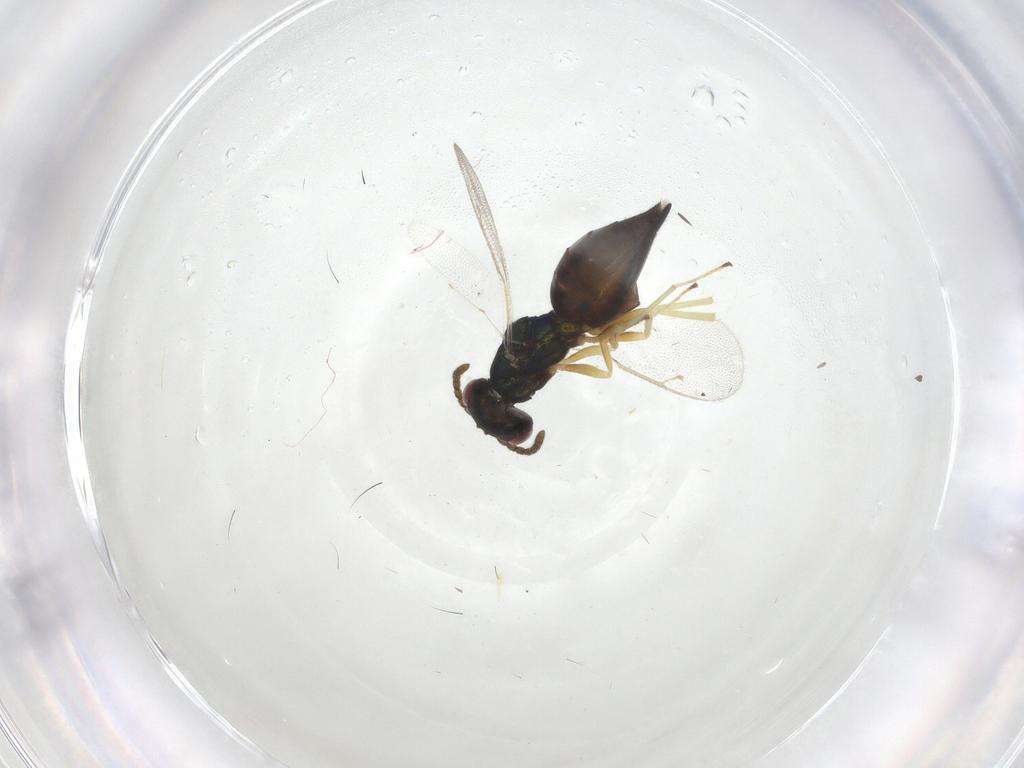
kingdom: Animalia
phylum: Arthropoda
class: Insecta
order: Hymenoptera
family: Pteromalidae
